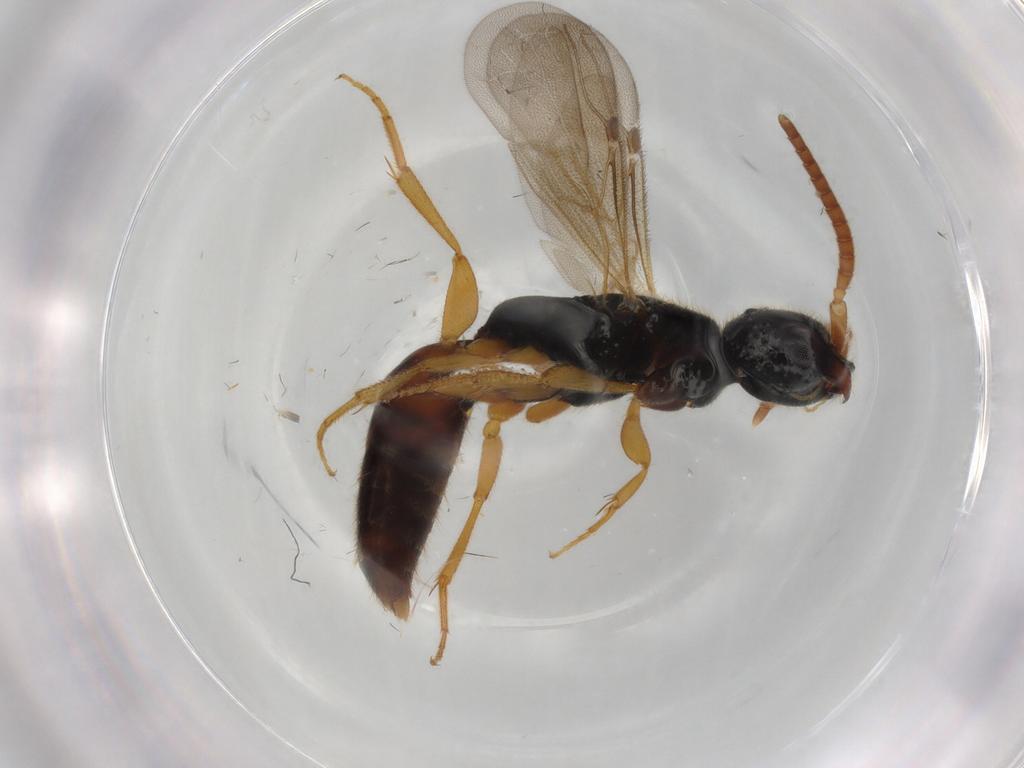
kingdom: Animalia
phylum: Arthropoda
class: Insecta
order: Hymenoptera
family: Bethylidae
